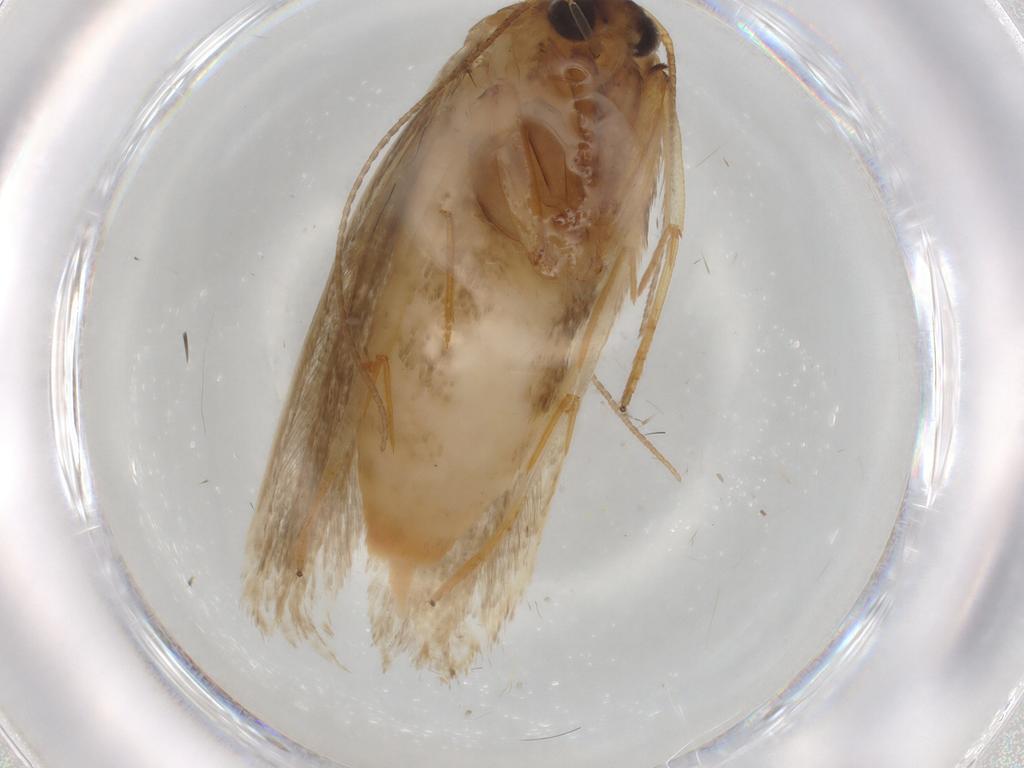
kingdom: Animalia
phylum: Arthropoda
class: Insecta
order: Lepidoptera
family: Blastobasidae
